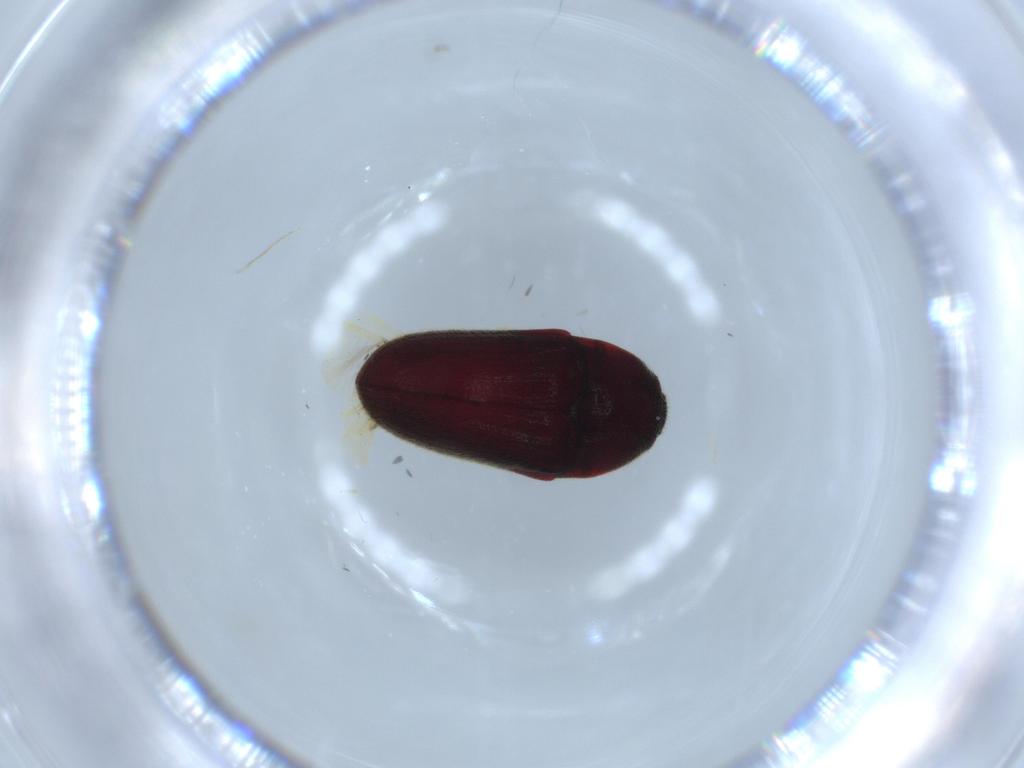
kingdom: Animalia
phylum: Arthropoda
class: Insecta
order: Coleoptera
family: Throscidae
